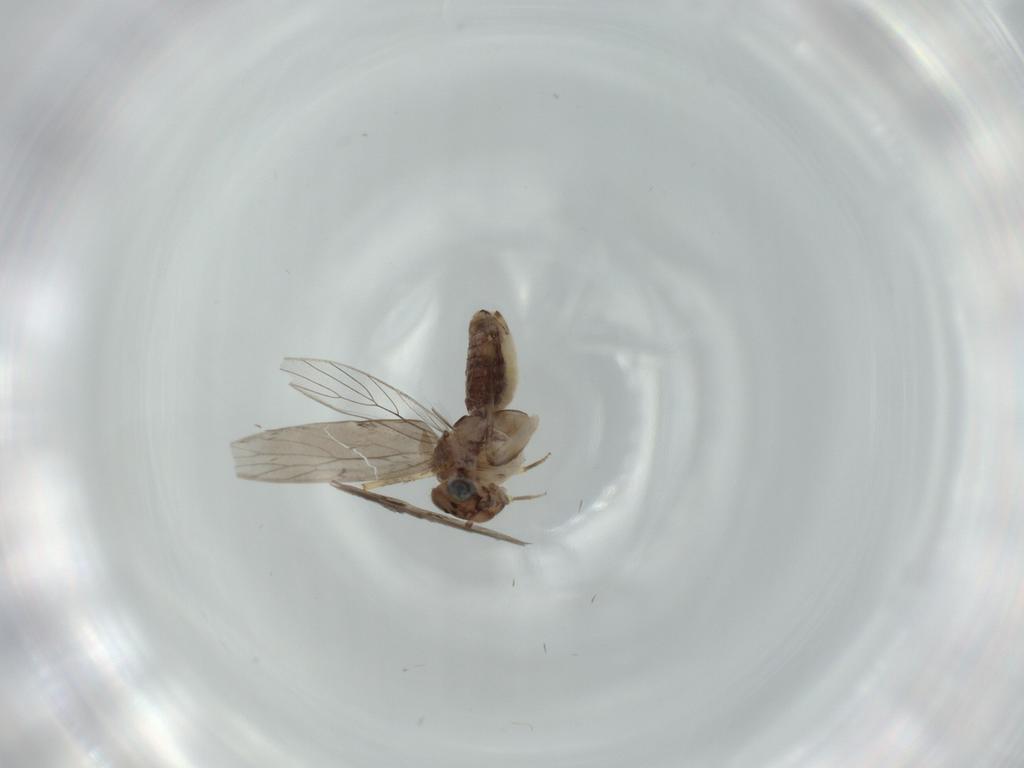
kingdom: Animalia
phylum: Arthropoda
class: Insecta
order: Psocodea
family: Lepidopsocidae
